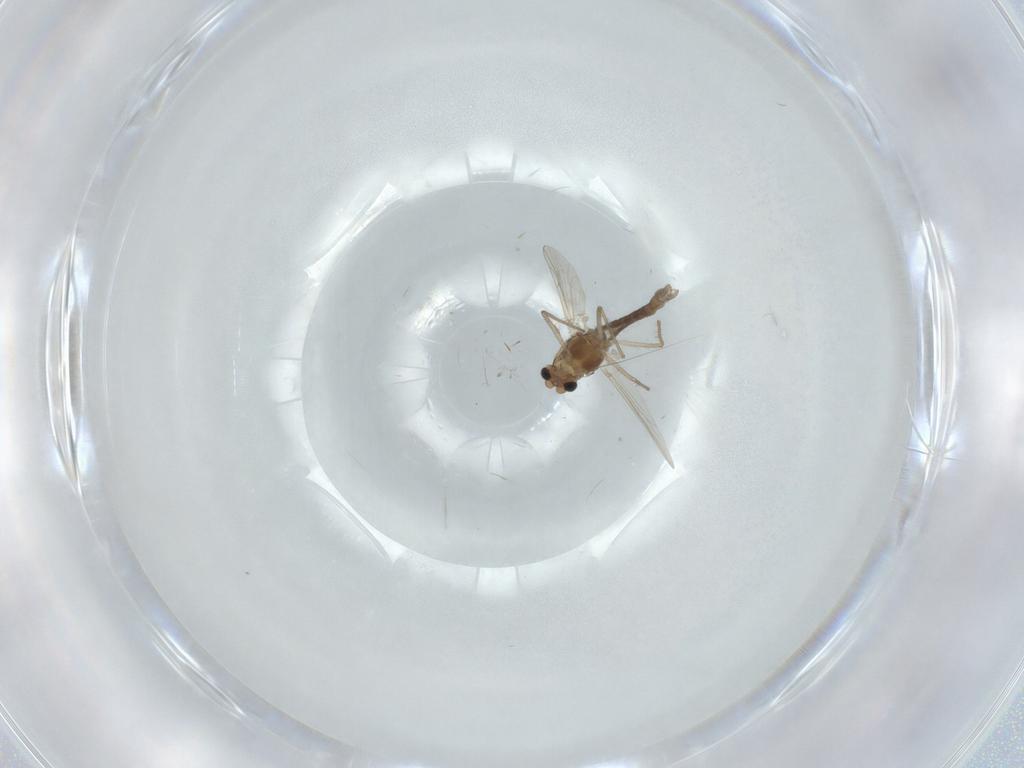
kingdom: Animalia
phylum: Arthropoda
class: Insecta
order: Diptera
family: Chironomidae
